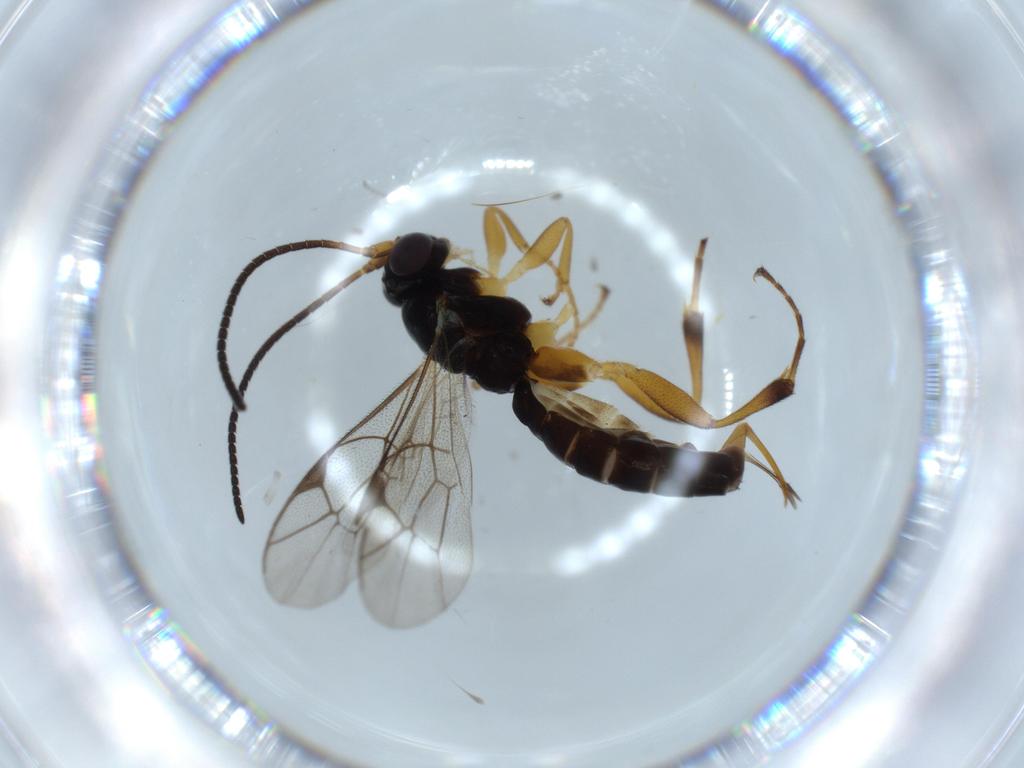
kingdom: Animalia
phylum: Arthropoda
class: Insecta
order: Hymenoptera
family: Platygastridae
